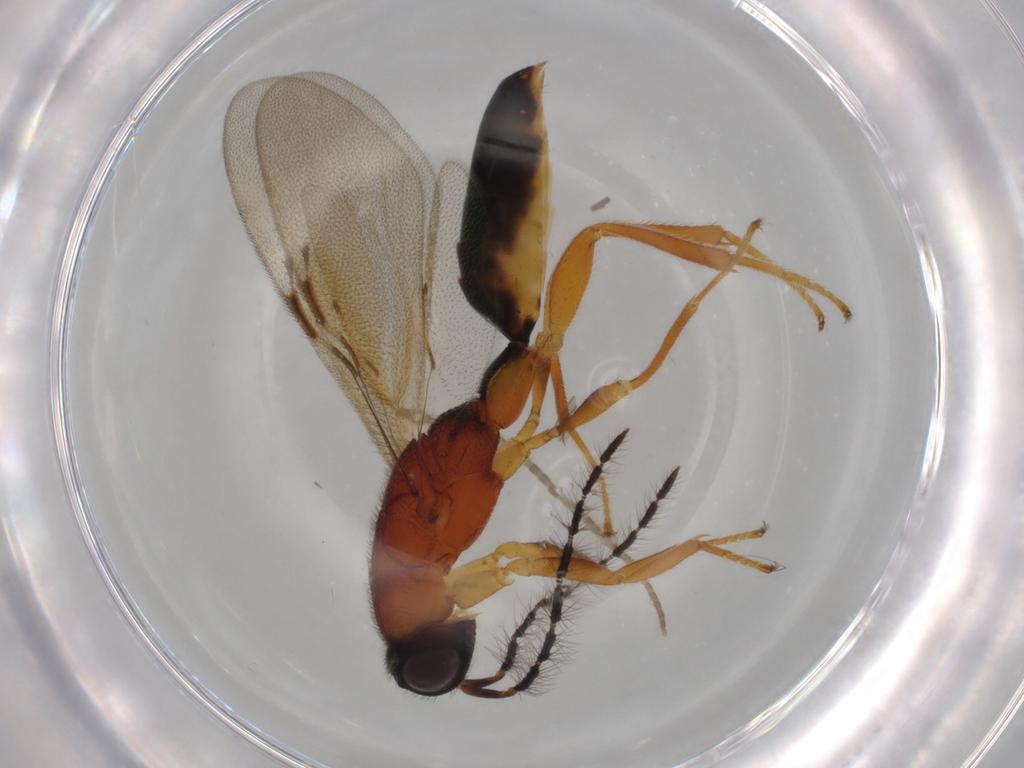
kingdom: Animalia
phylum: Arthropoda
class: Insecta
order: Hymenoptera
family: Eurytomidae
